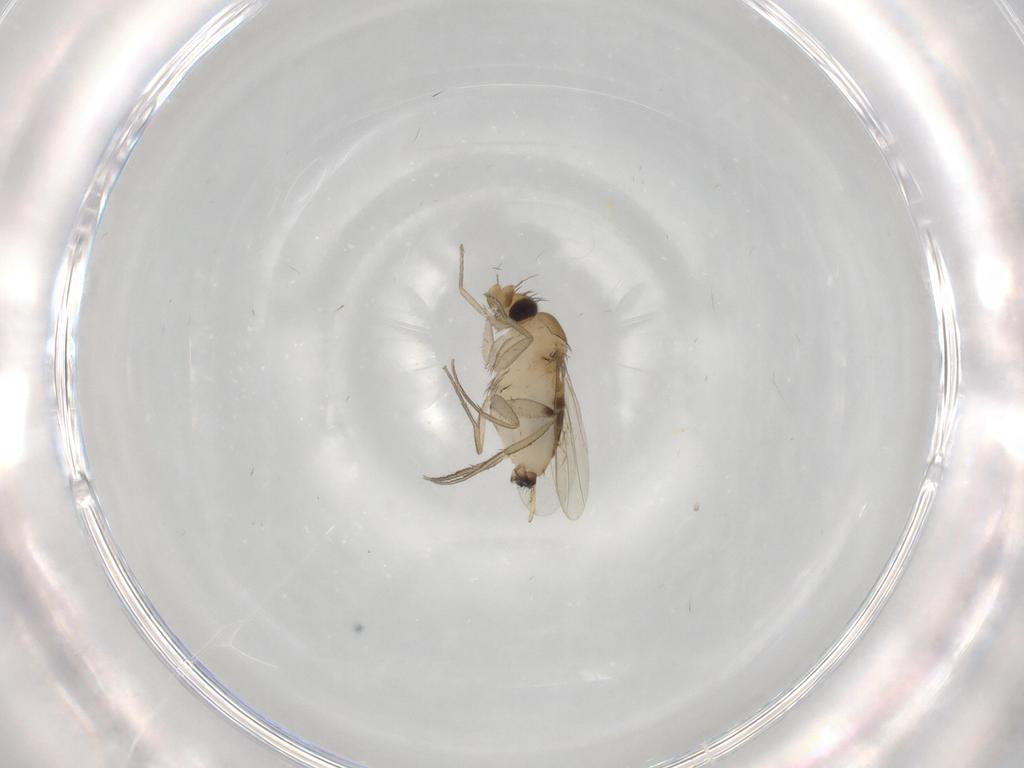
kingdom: Animalia
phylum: Arthropoda
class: Insecta
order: Diptera
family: Phoridae
